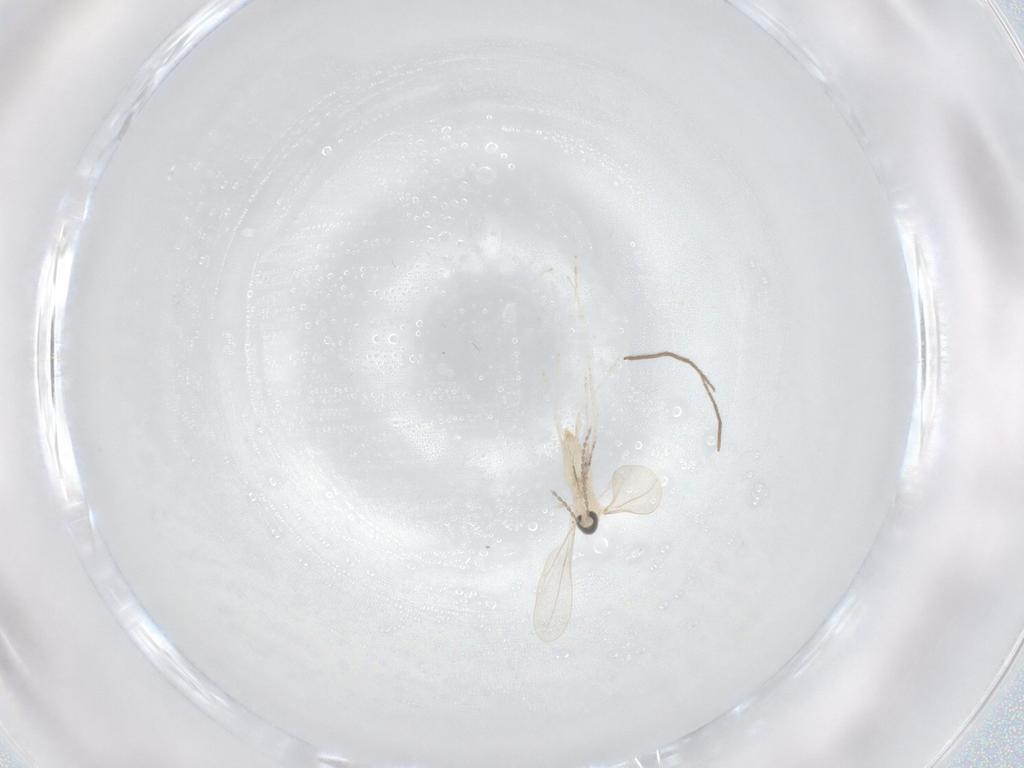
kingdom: Animalia
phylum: Arthropoda
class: Insecta
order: Diptera
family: Chironomidae
